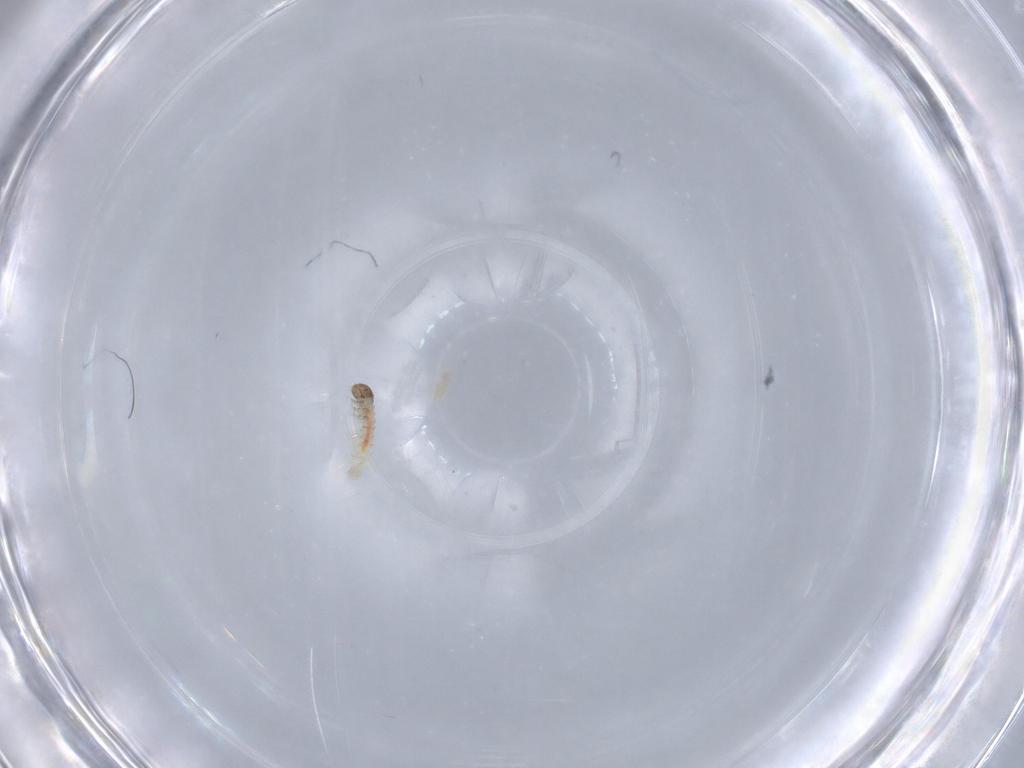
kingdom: Animalia
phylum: Arthropoda
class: Insecta
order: Lepidoptera
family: Lecithoceridae
